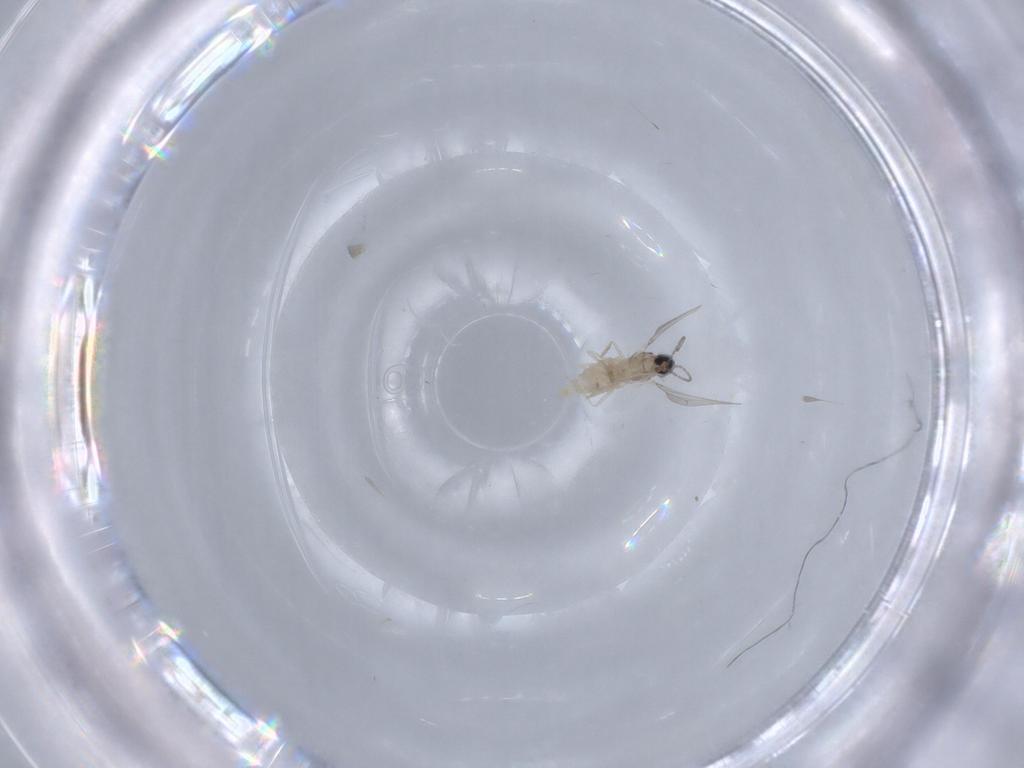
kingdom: Animalia
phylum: Arthropoda
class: Insecta
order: Diptera
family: Cecidomyiidae
